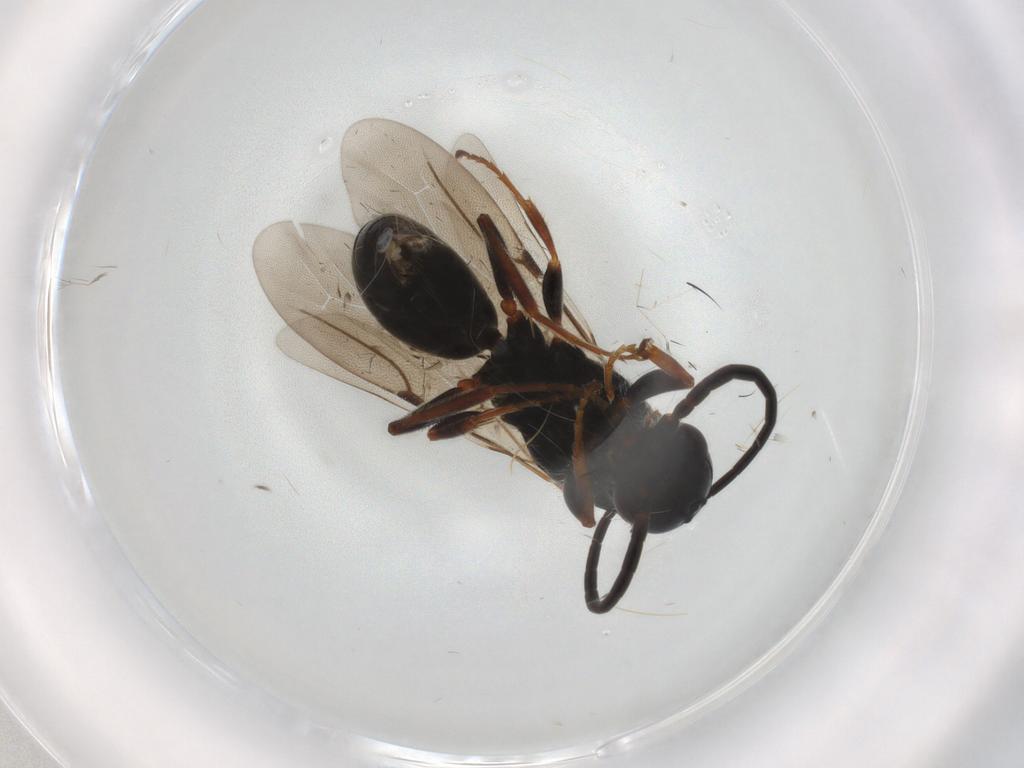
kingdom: Animalia
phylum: Arthropoda
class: Insecta
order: Hymenoptera
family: Bethylidae
